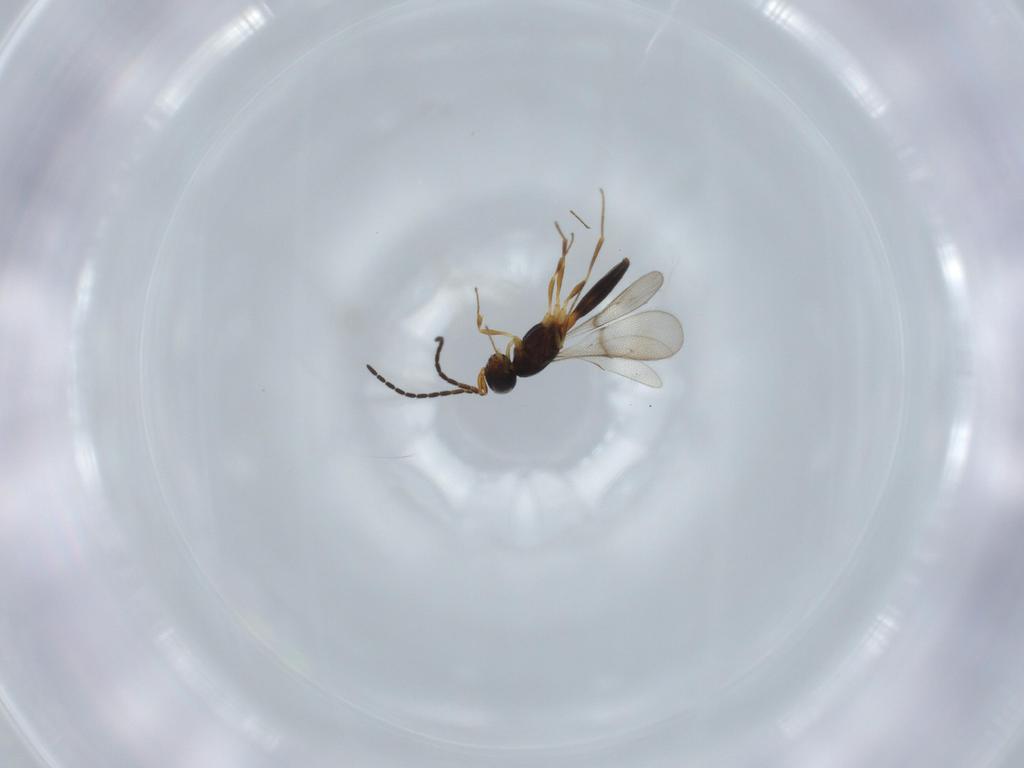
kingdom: Animalia
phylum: Arthropoda
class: Insecta
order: Hymenoptera
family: Scelionidae
